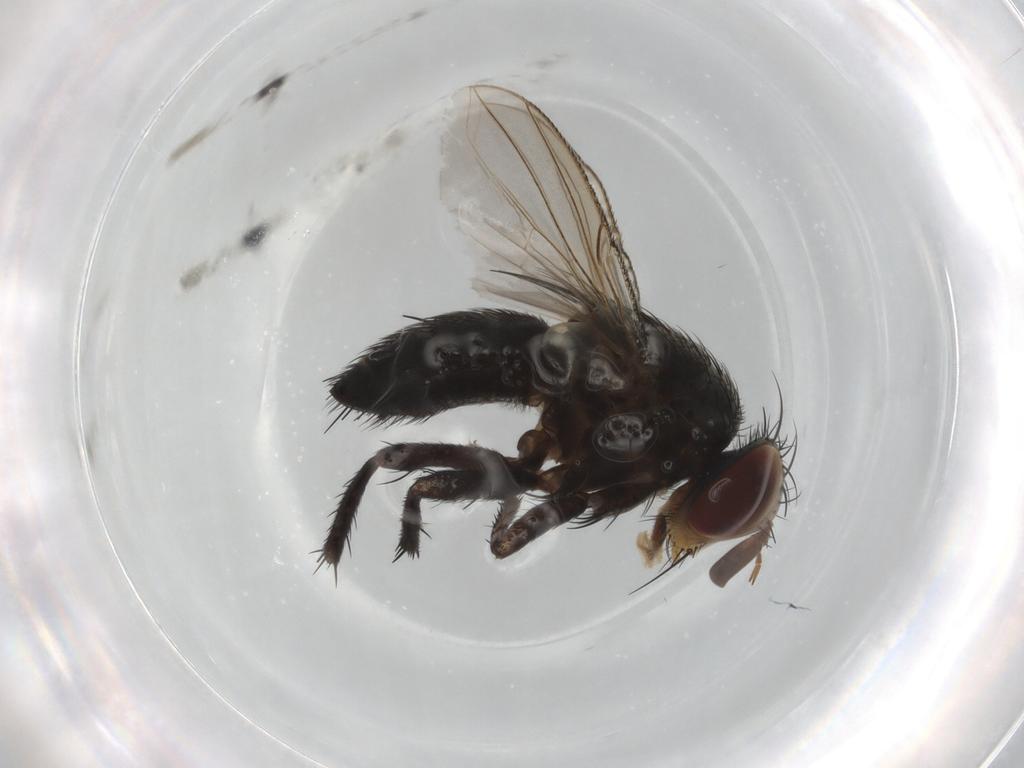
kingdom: Animalia
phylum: Arthropoda
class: Insecta
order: Diptera
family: Tachinidae
